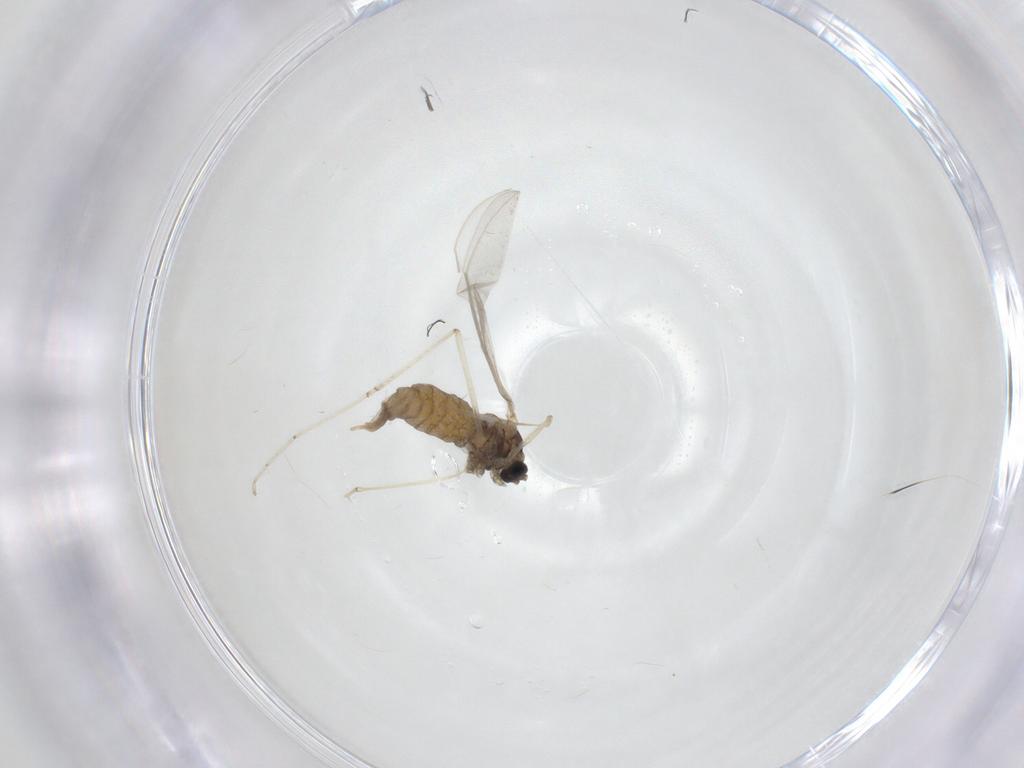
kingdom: Animalia
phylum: Arthropoda
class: Insecta
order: Diptera
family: Cecidomyiidae
